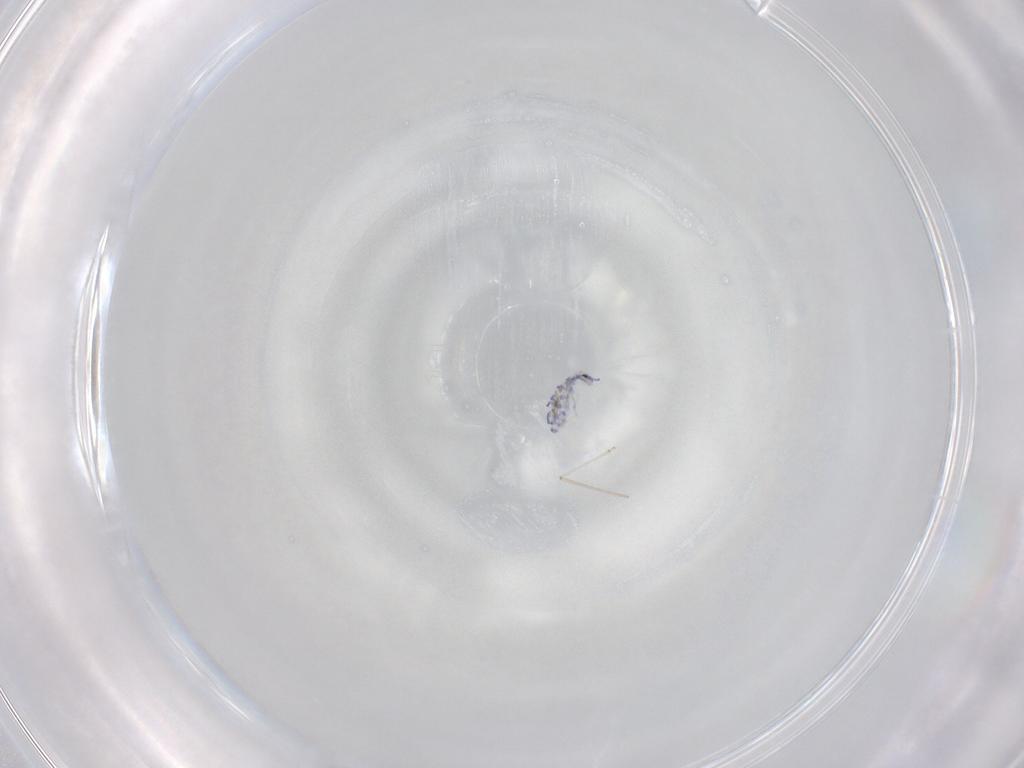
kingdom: Animalia
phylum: Arthropoda
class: Collembola
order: Entomobryomorpha
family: Entomobryidae
